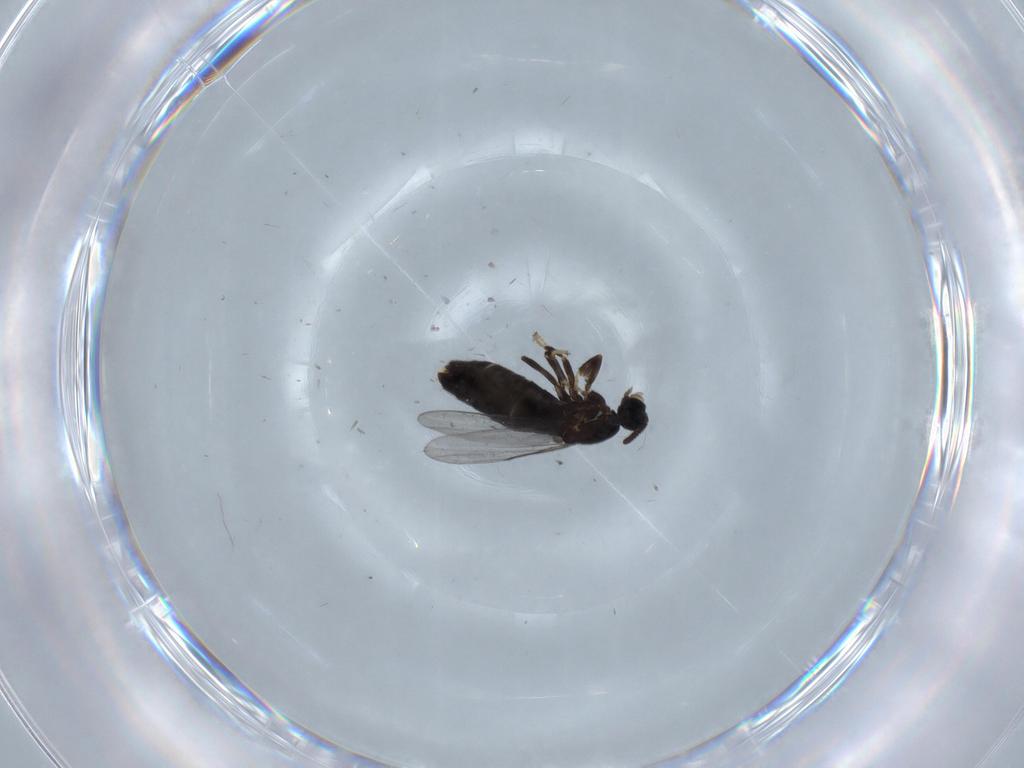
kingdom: Animalia
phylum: Arthropoda
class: Insecta
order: Diptera
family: Scatopsidae
